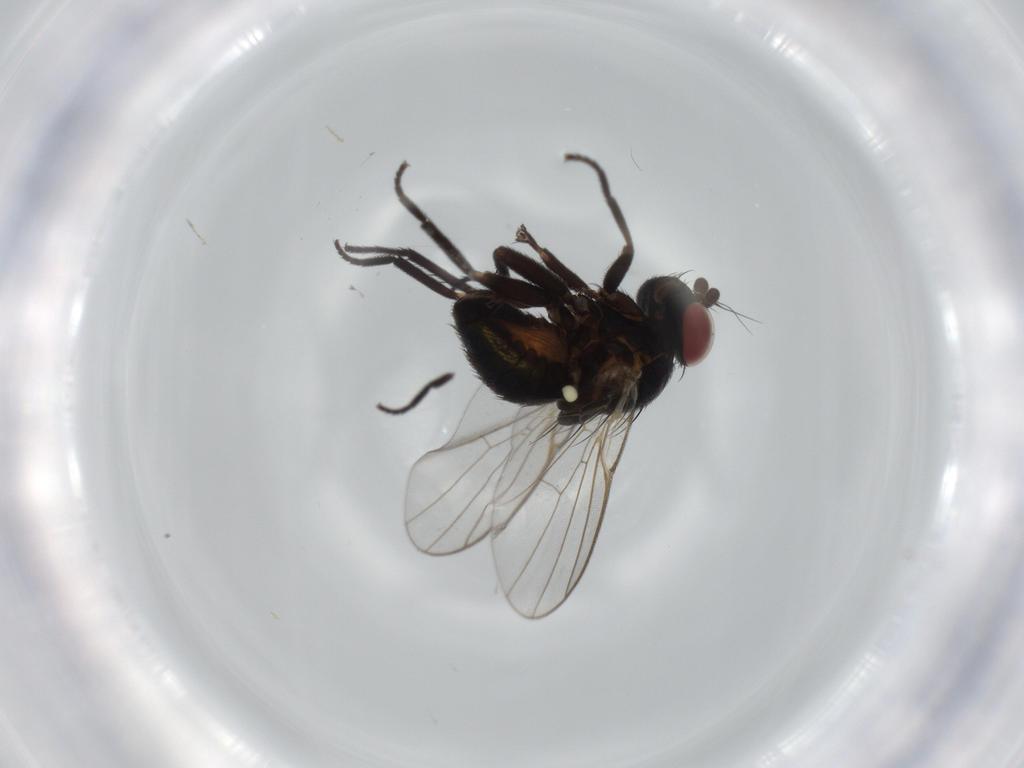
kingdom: Animalia
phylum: Arthropoda
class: Insecta
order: Diptera
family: Agromyzidae
